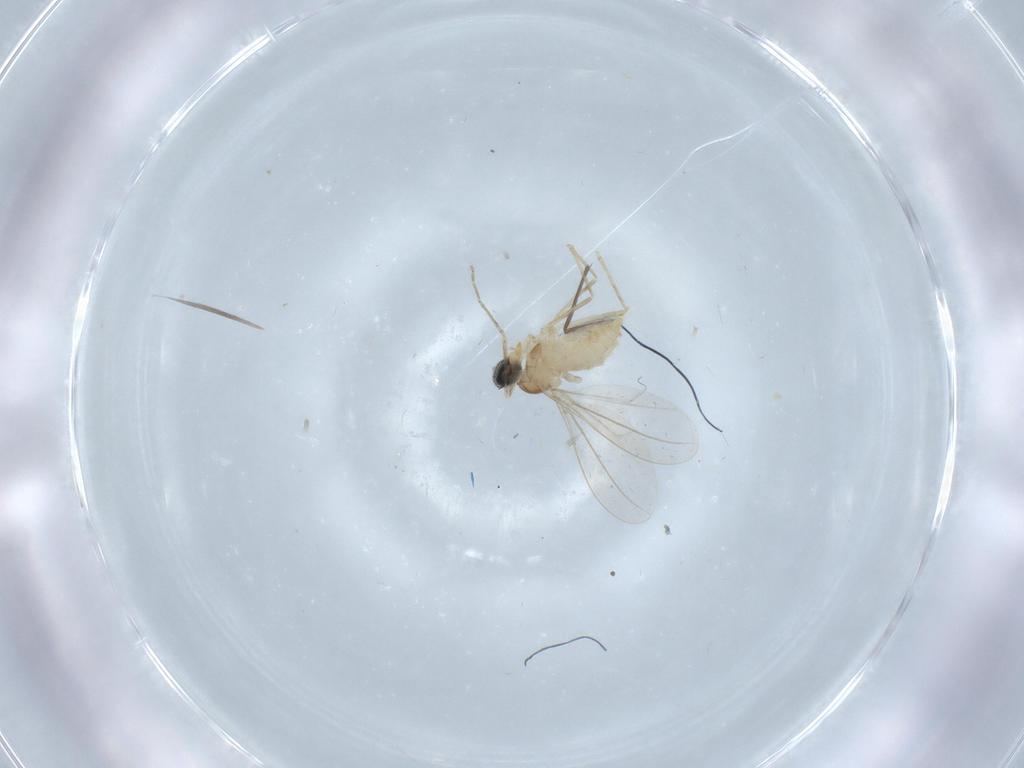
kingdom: Animalia
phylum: Arthropoda
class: Insecta
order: Diptera
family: Cecidomyiidae
